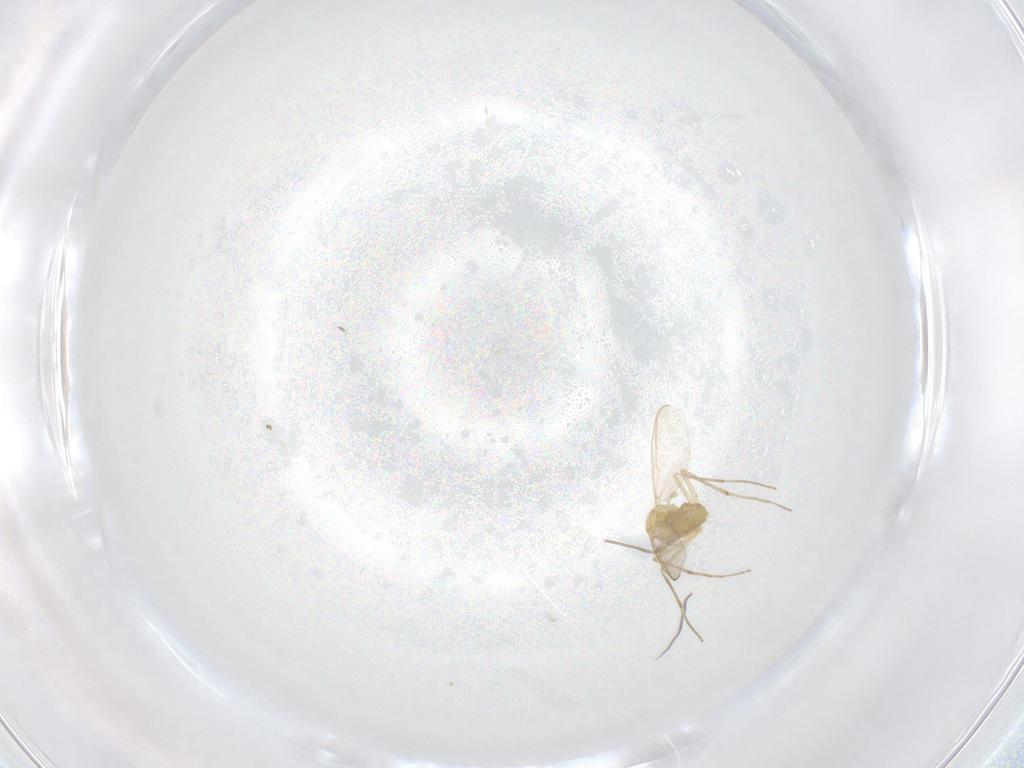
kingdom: Animalia
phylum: Arthropoda
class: Insecta
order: Diptera
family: Chironomidae
